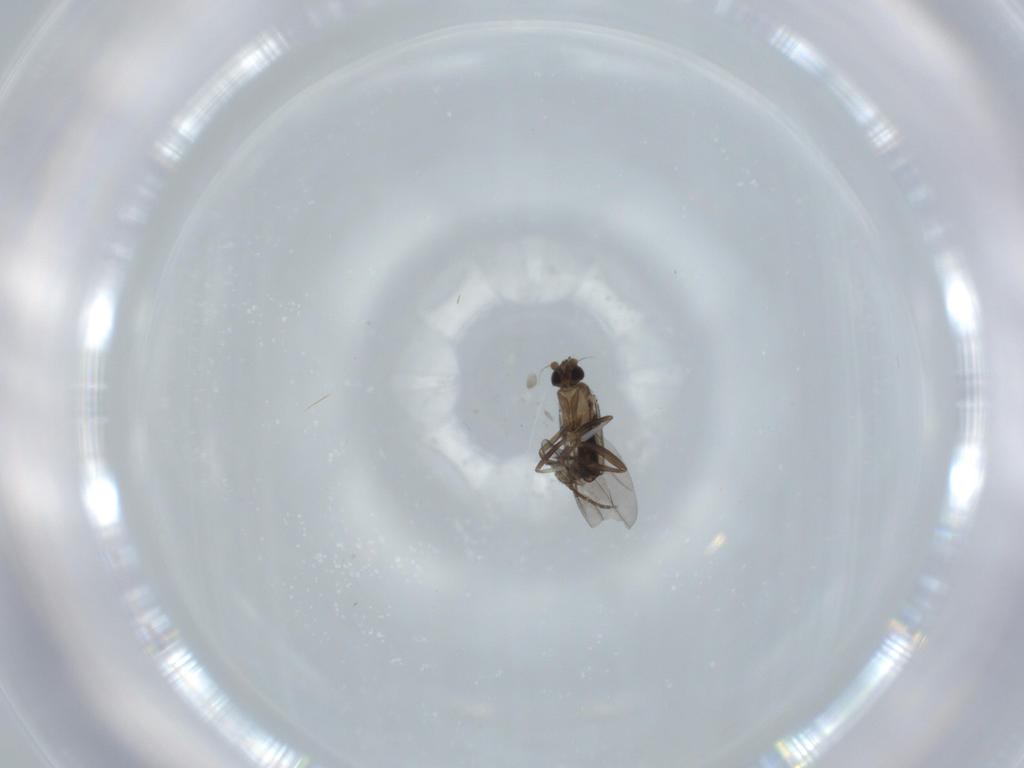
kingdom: Animalia
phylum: Arthropoda
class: Insecta
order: Diptera
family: Phoridae
